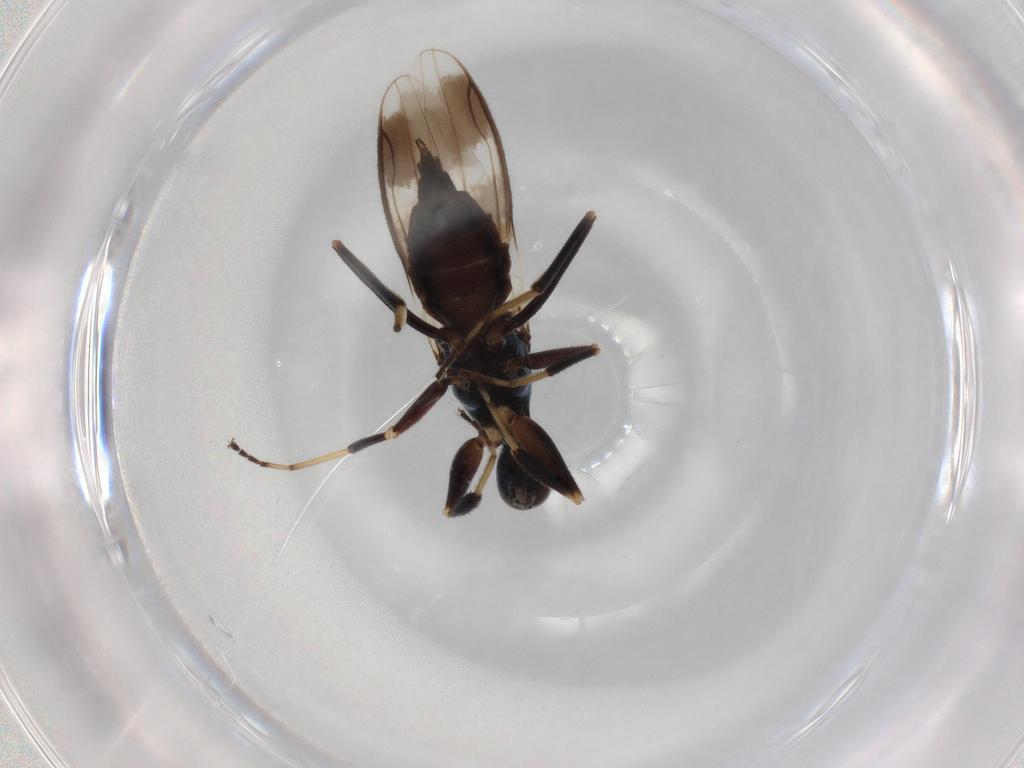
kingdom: Animalia
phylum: Arthropoda
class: Insecta
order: Diptera
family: Hybotidae
